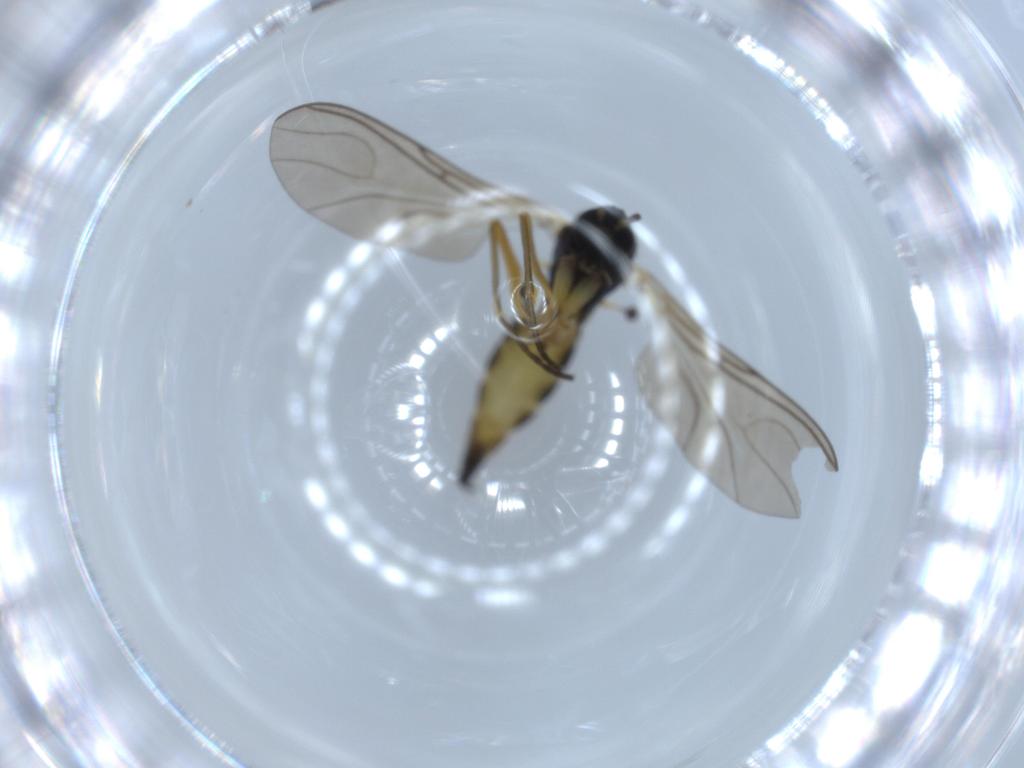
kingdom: Animalia
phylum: Arthropoda
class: Insecta
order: Diptera
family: Sciaridae
